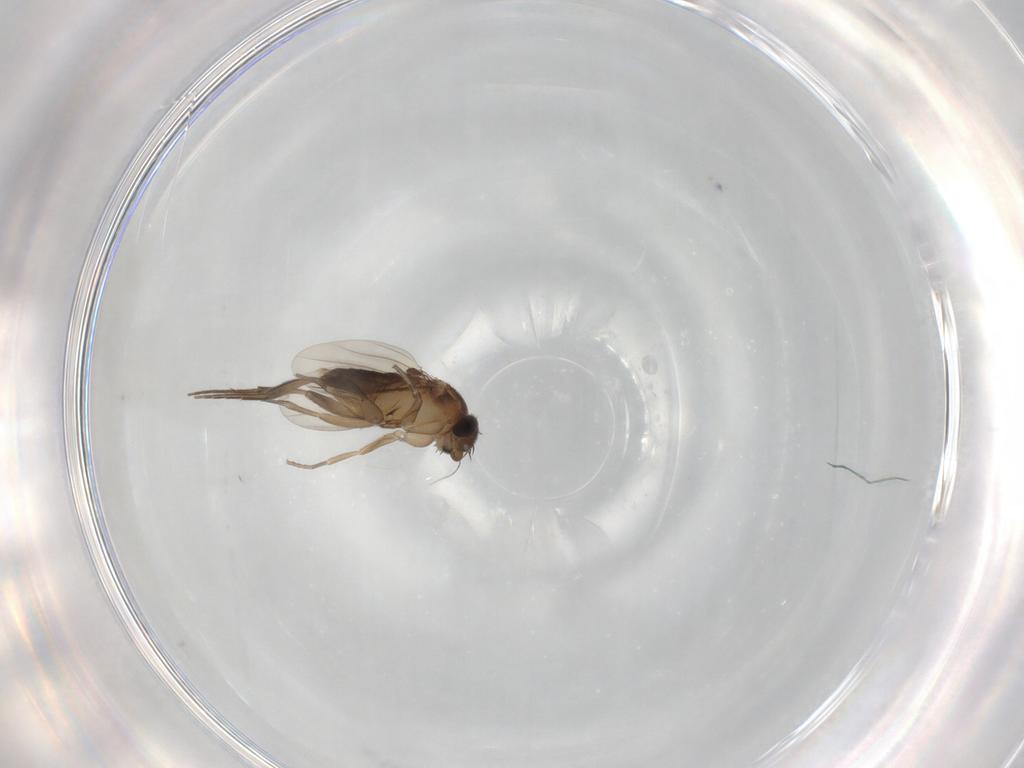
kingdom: Animalia
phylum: Arthropoda
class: Insecta
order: Diptera
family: Phoridae
